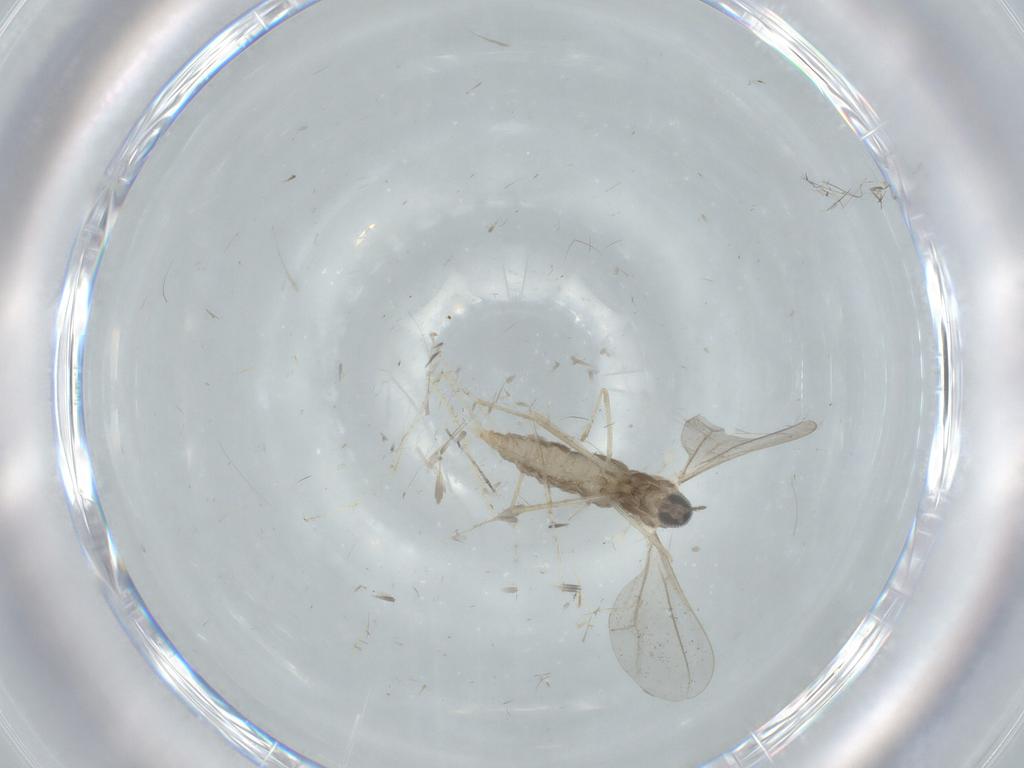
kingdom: Animalia
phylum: Arthropoda
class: Insecta
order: Diptera
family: Cecidomyiidae
